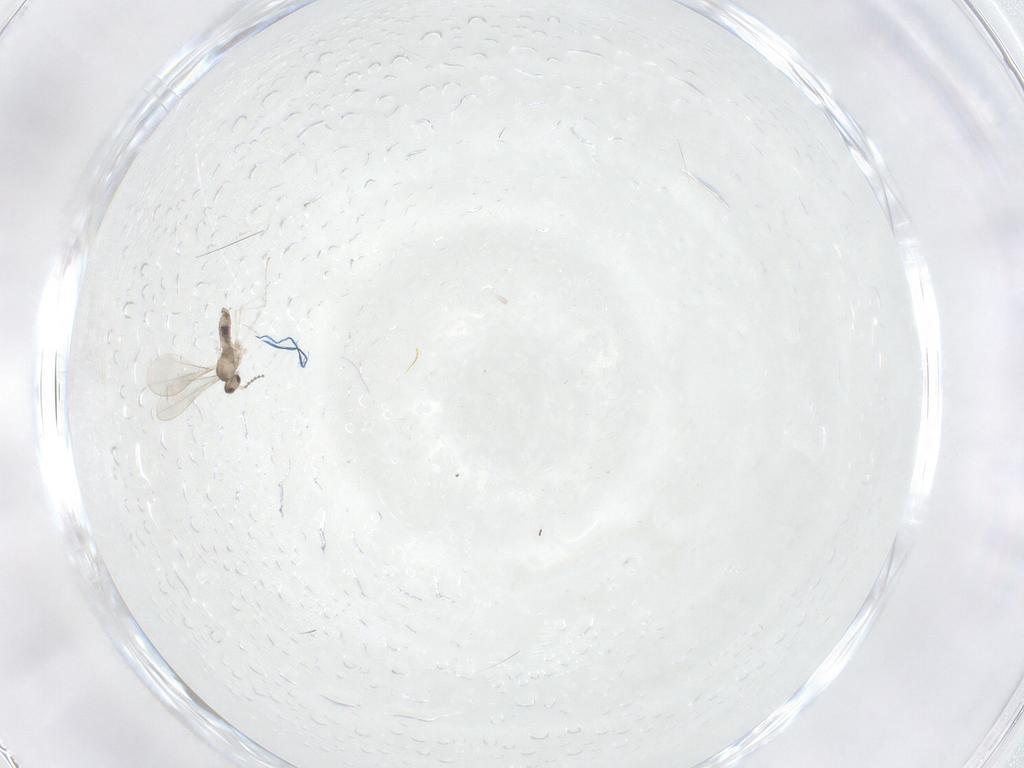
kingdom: Animalia
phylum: Arthropoda
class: Insecta
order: Diptera
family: Cecidomyiidae
